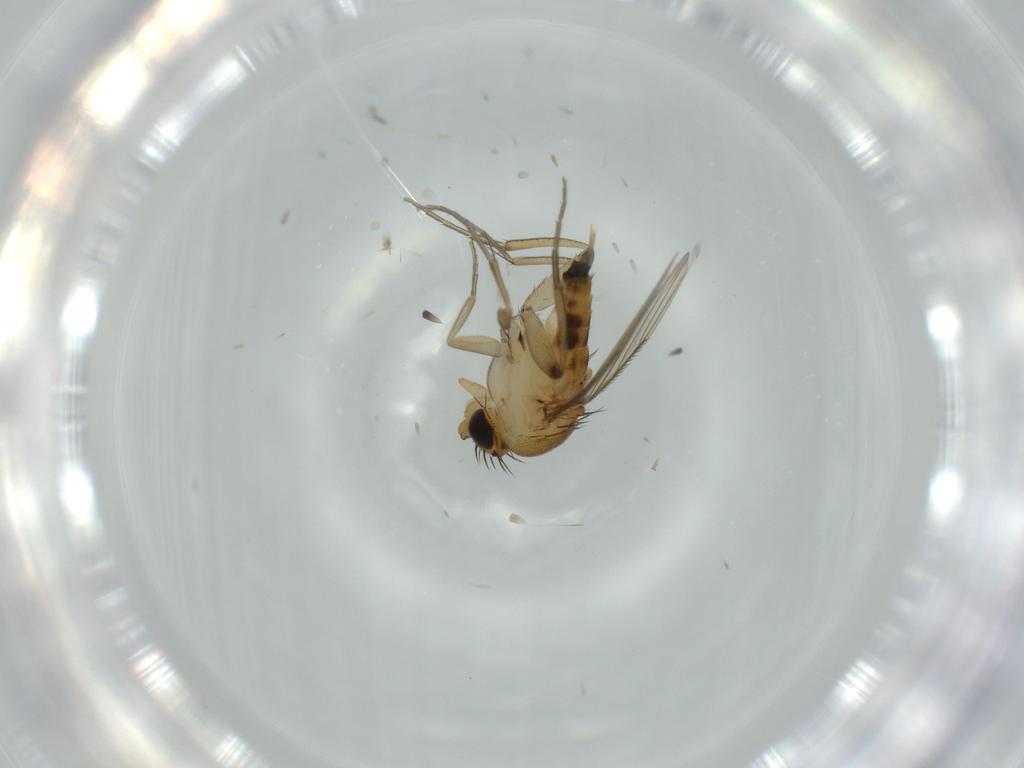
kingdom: Animalia
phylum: Arthropoda
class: Insecta
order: Diptera
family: Phoridae
